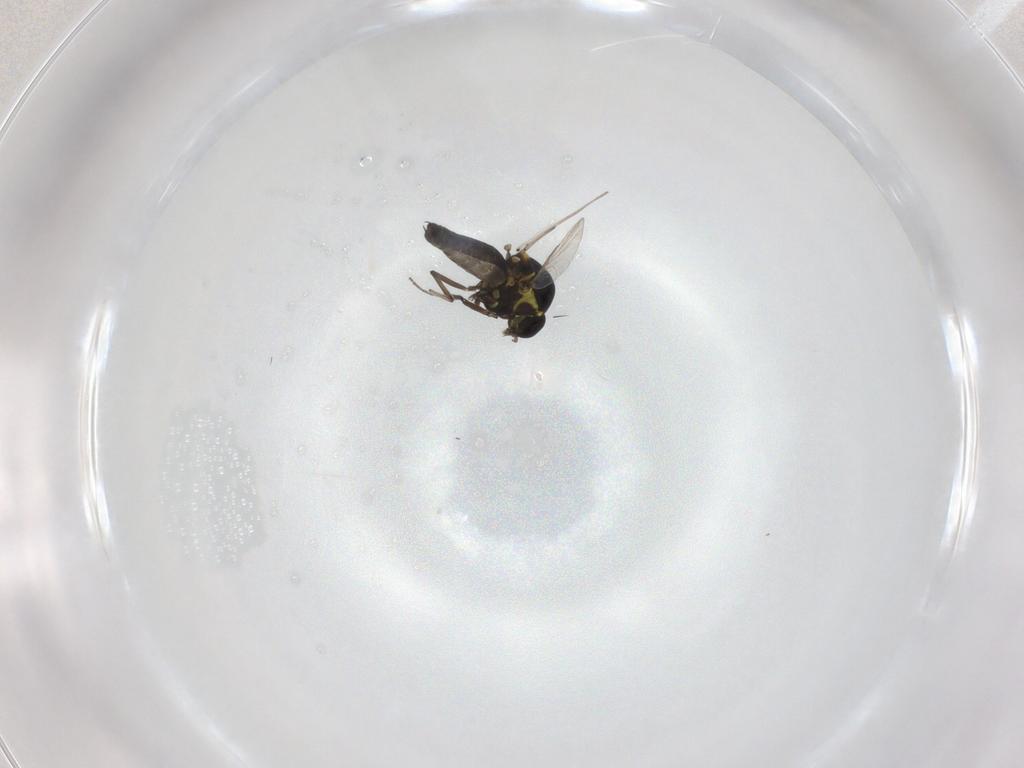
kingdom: Animalia
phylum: Arthropoda
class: Insecta
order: Diptera
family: Ceratopogonidae
